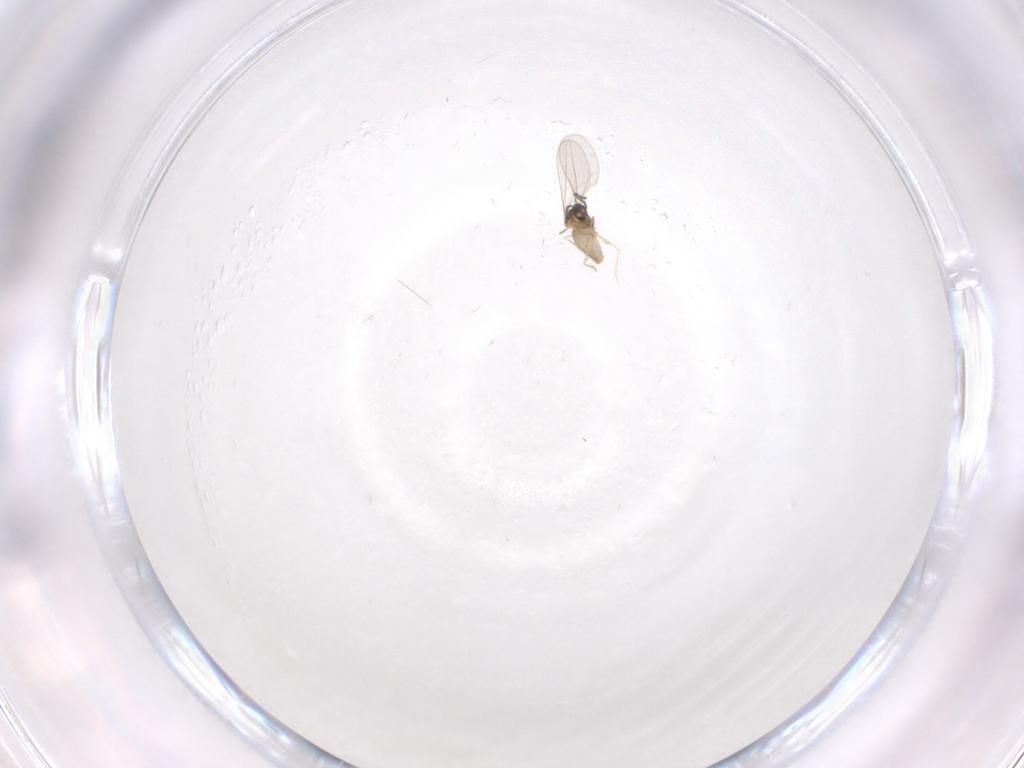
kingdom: Animalia
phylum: Arthropoda
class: Insecta
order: Diptera
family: Cecidomyiidae
